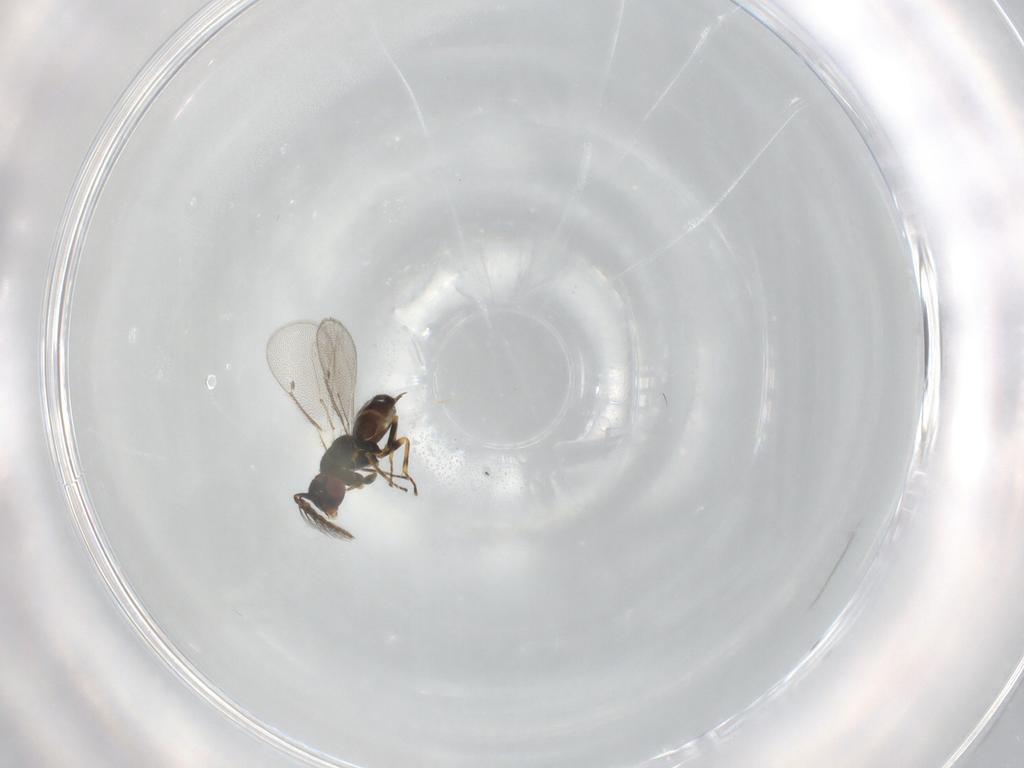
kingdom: Animalia
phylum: Arthropoda
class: Insecta
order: Hymenoptera
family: Eulophidae
